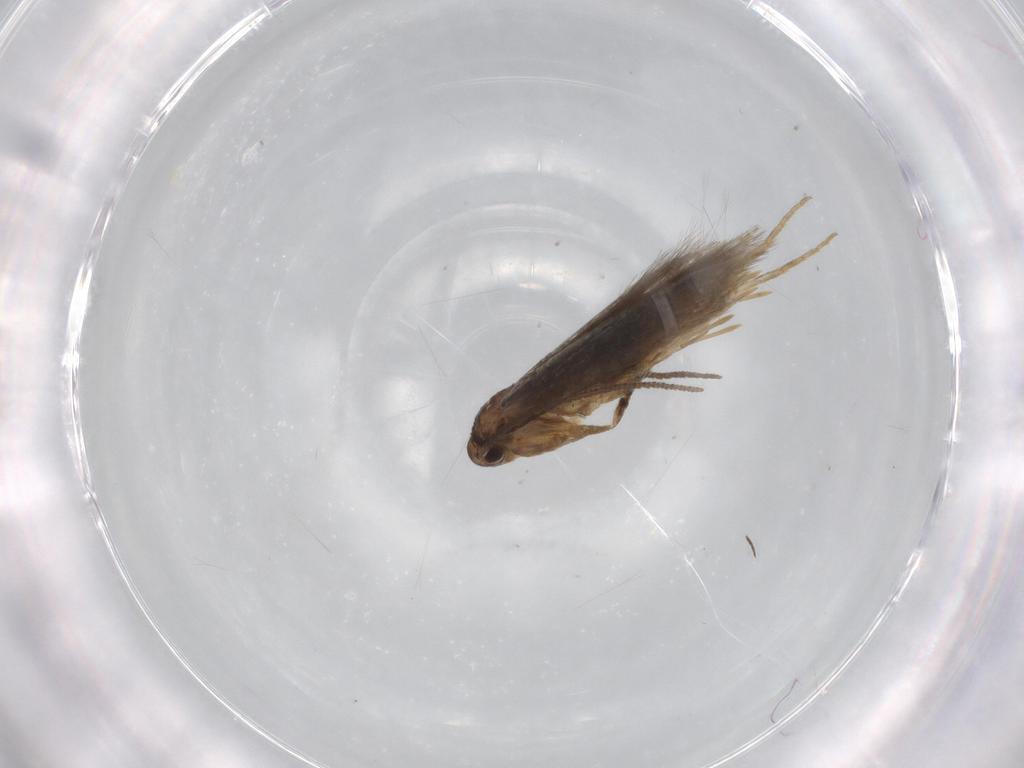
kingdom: Animalia
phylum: Arthropoda
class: Insecta
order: Lepidoptera
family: Elachistidae
